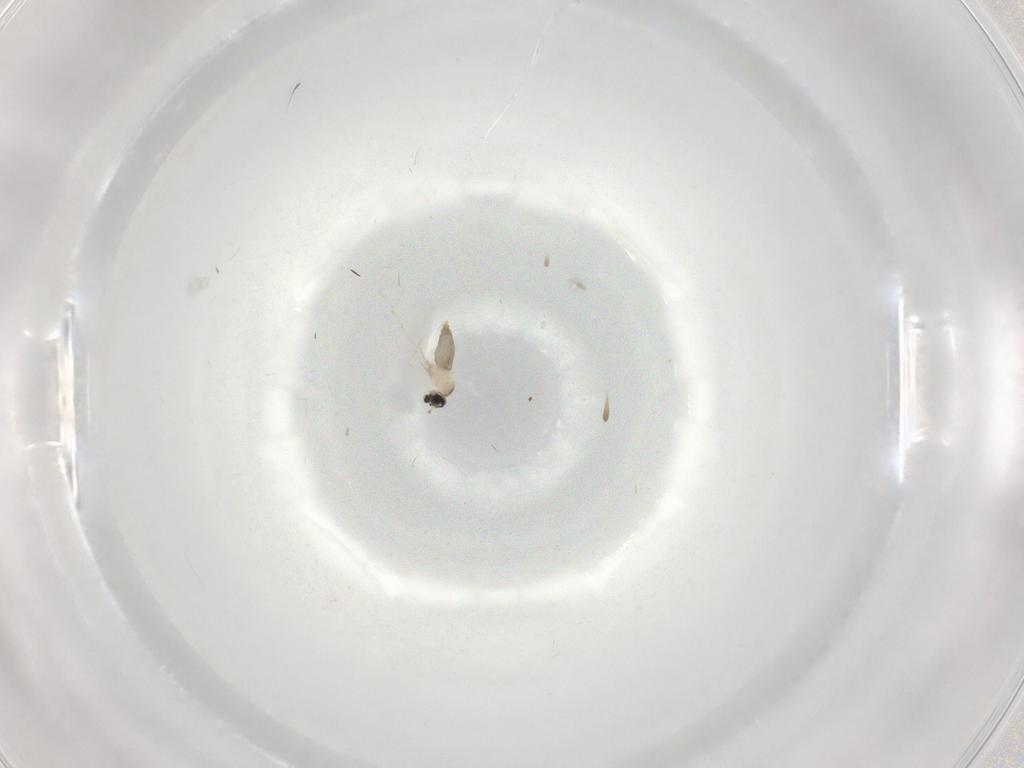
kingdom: Animalia
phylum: Arthropoda
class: Insecta
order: Diptera
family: Cecidomyiidae
